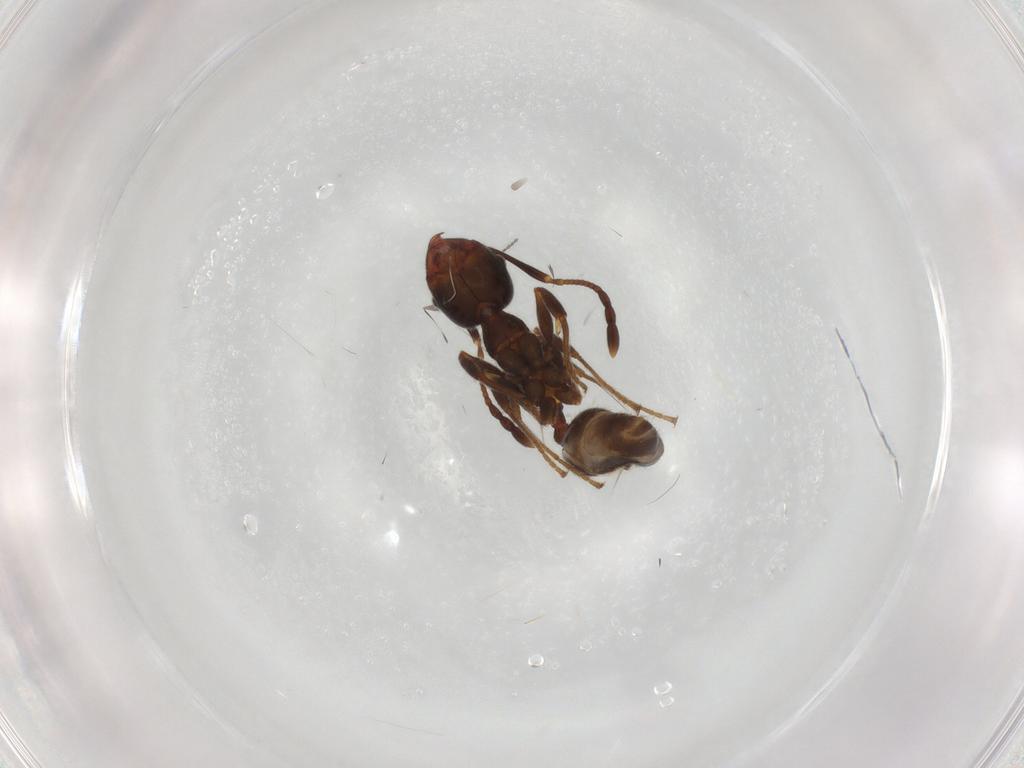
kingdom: Animalia
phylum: Arthropoda
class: Insecta
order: Hymenoptera
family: Formicidae
